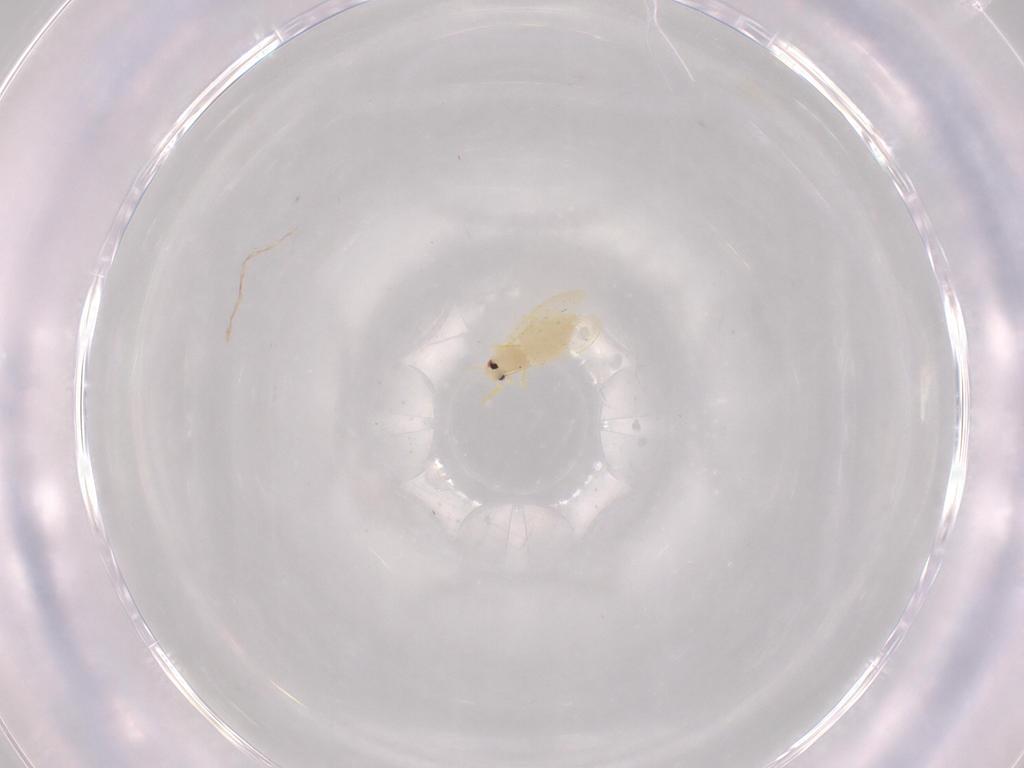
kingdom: Animalia
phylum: Arthropoda
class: Insecta
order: Hemiptera
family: Aleyrodidae
